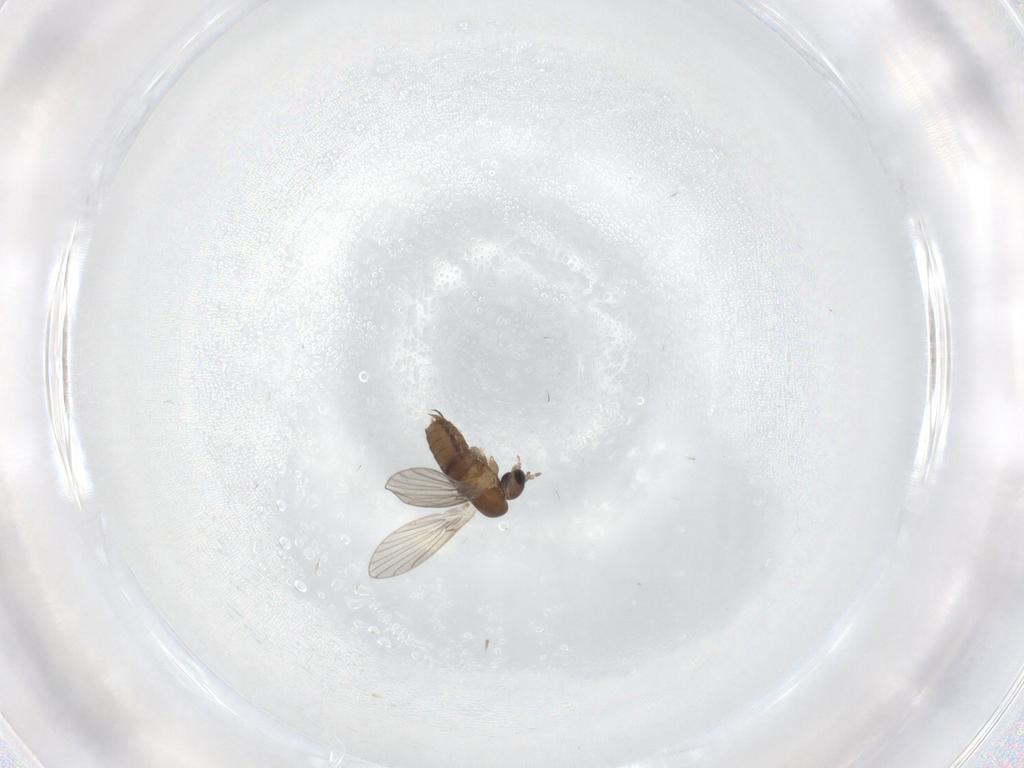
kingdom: Animalia
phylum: Arthropoda
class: Insecta
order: Diptera
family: Psychodidae
